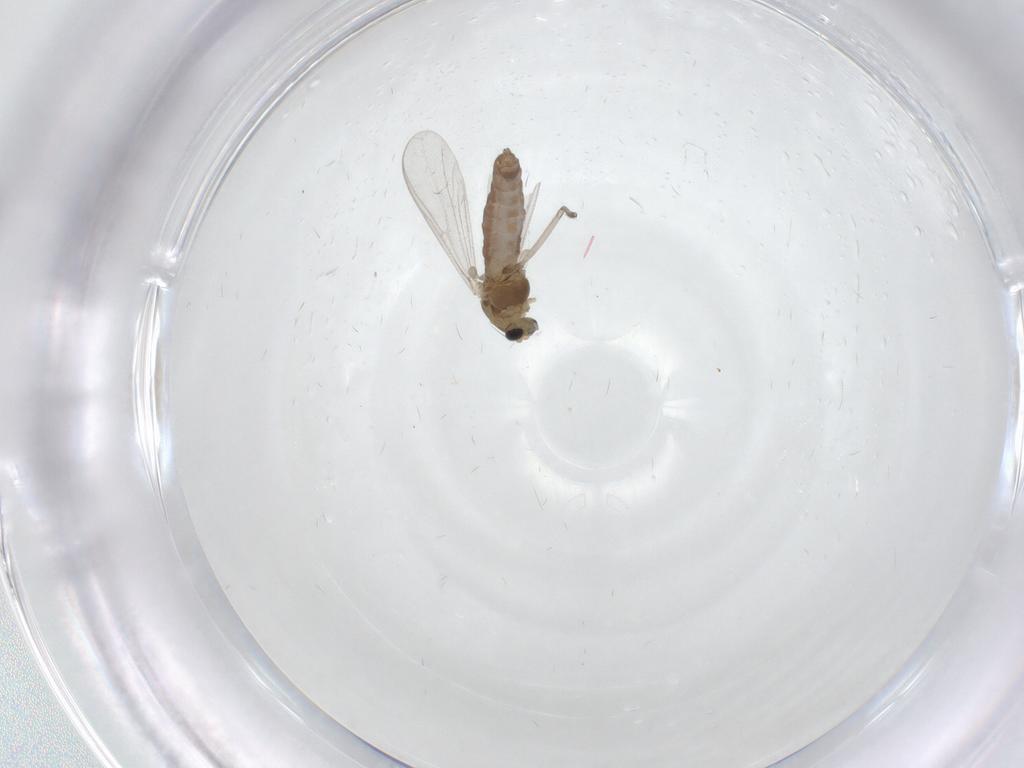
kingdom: Animalia
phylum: Arthropoda
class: Insecta
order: Diptera
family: Chironomidae
